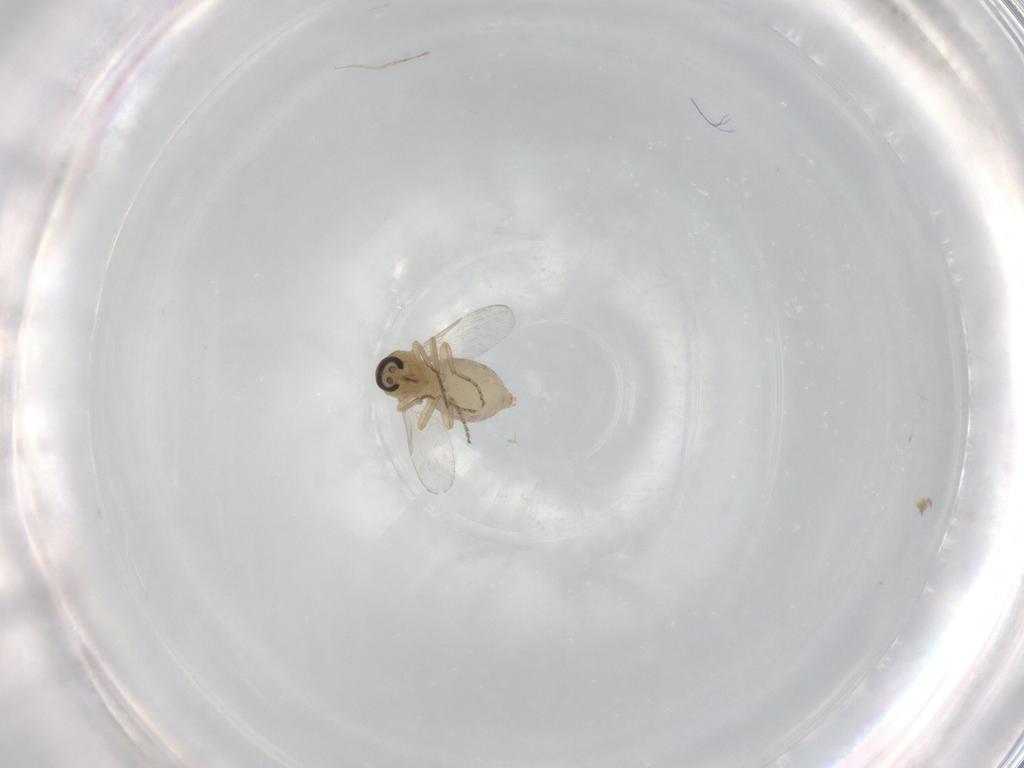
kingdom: Animalia
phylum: Arthropoda
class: Insecta
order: Diptera
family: Ceratopogonidae
